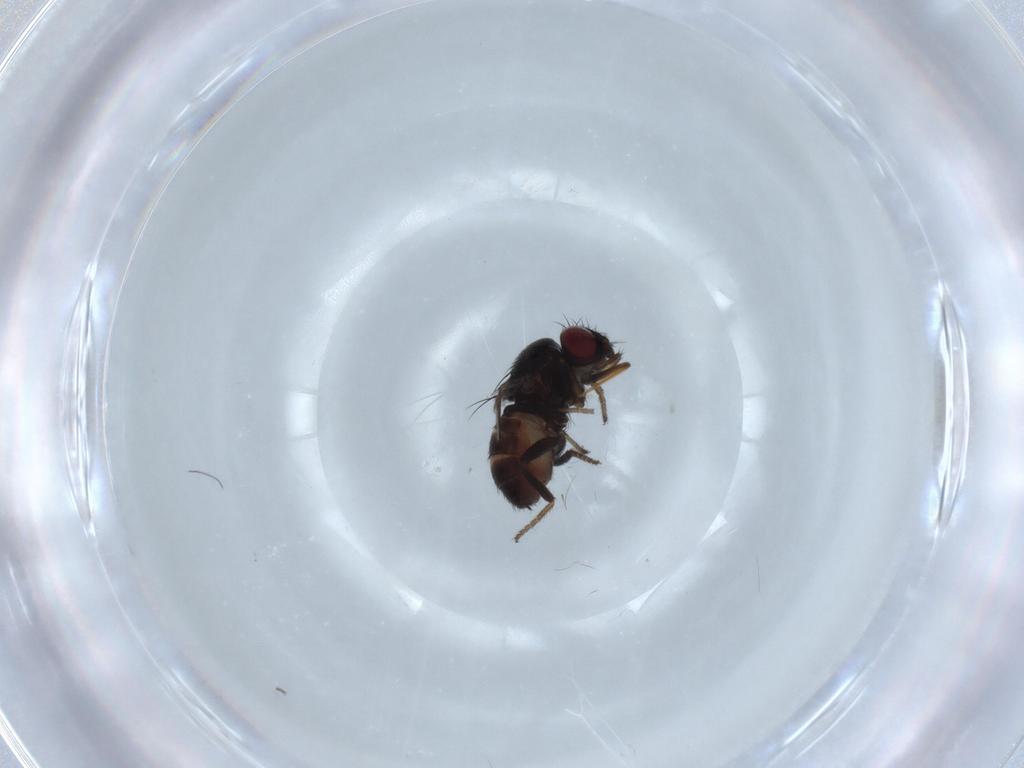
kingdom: Animalia
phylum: Arthropoda
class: Insecta
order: Diptera
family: Milichiidae
